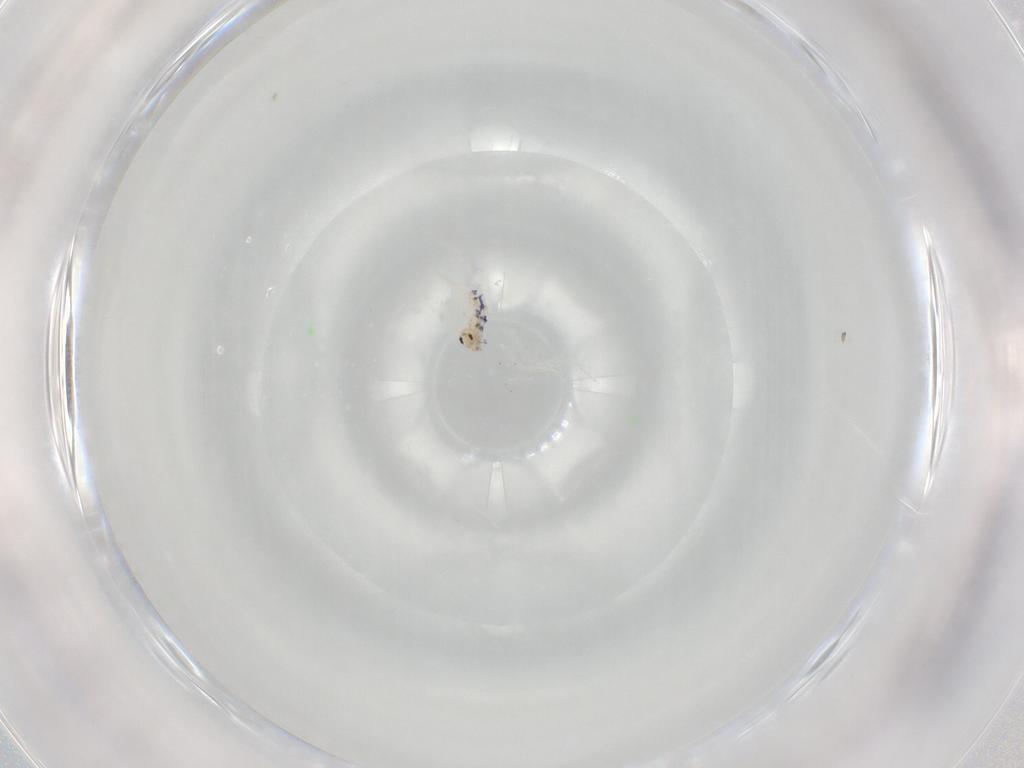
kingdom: Animalia
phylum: Arthropoda
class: Collembola
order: Entomobryomorpha
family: Entomobryidae
